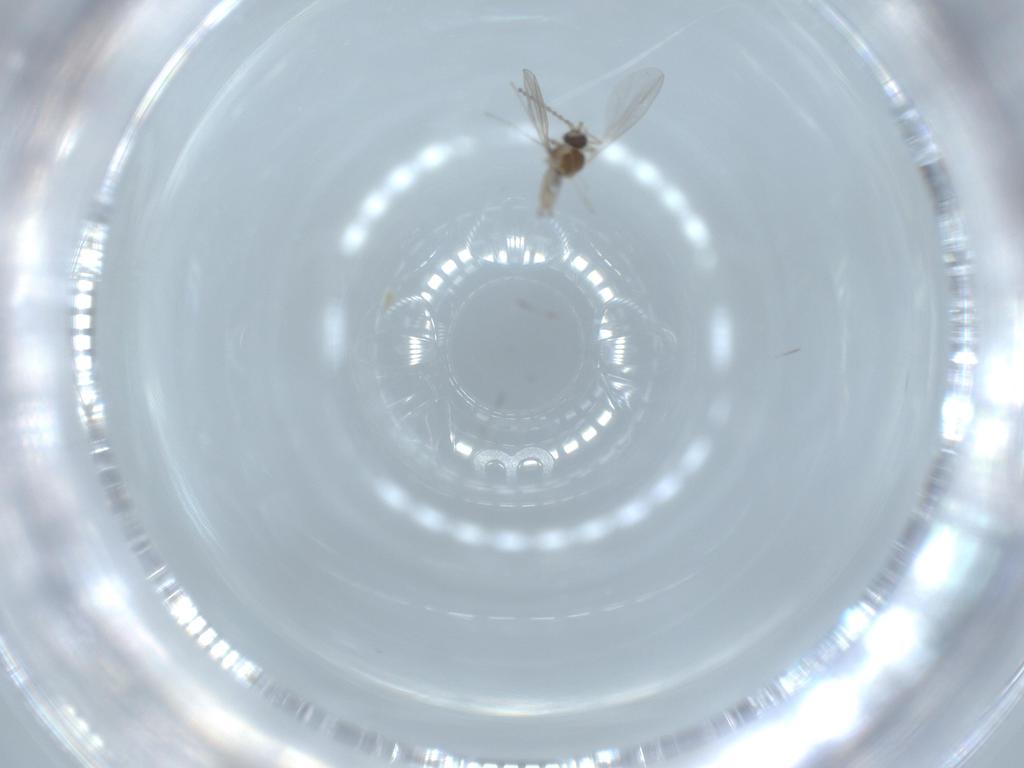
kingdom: Animalia
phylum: Arthropoda
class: Insecta
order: Diptera
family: Cecidomyiidae
